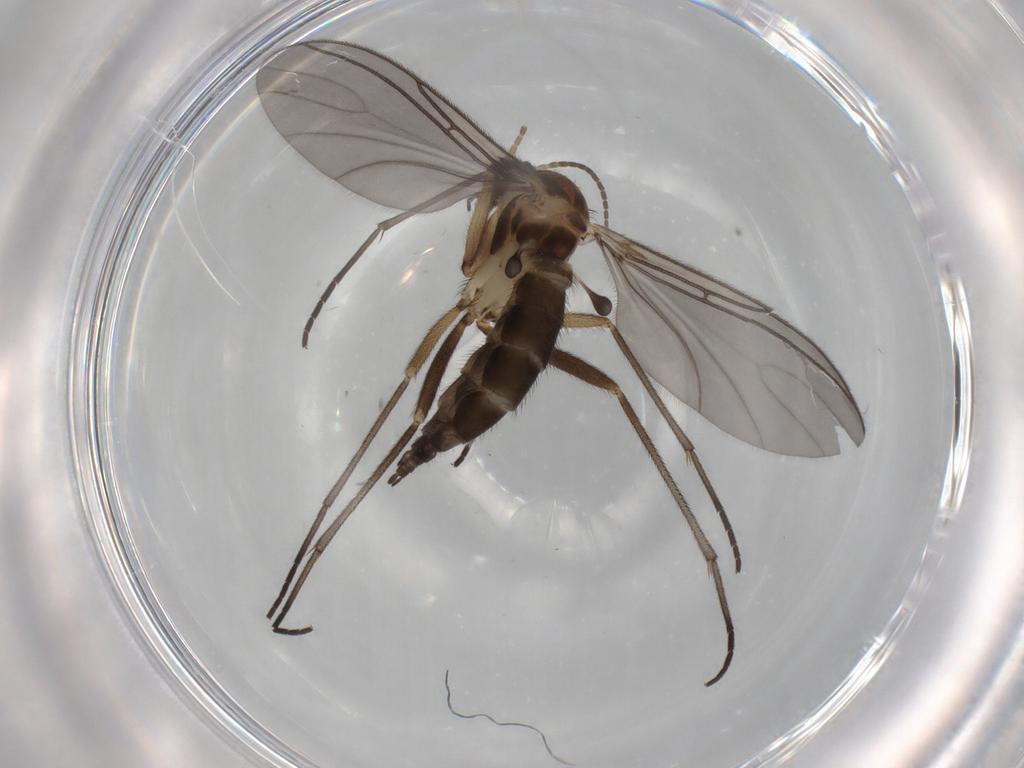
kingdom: Animalia
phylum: Arthropoda
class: Insecta
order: Diptera
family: Sciaridae
